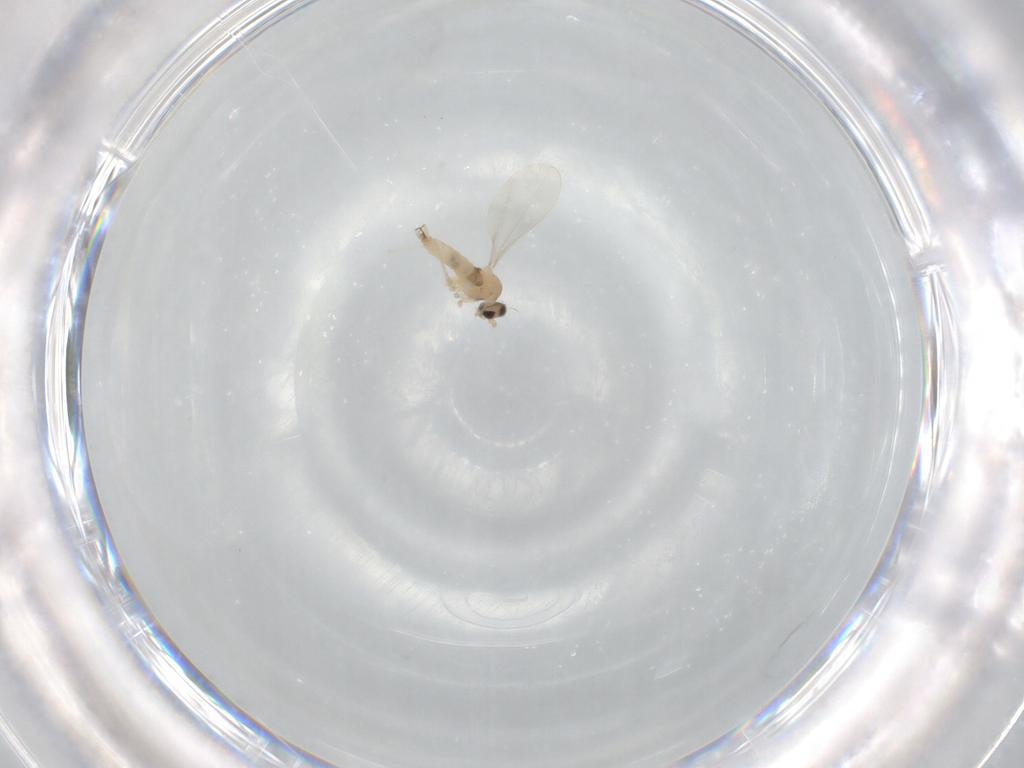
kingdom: Animalia
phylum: Arthropoda
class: Insecta
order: Diptera
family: Cecidomyiidae
